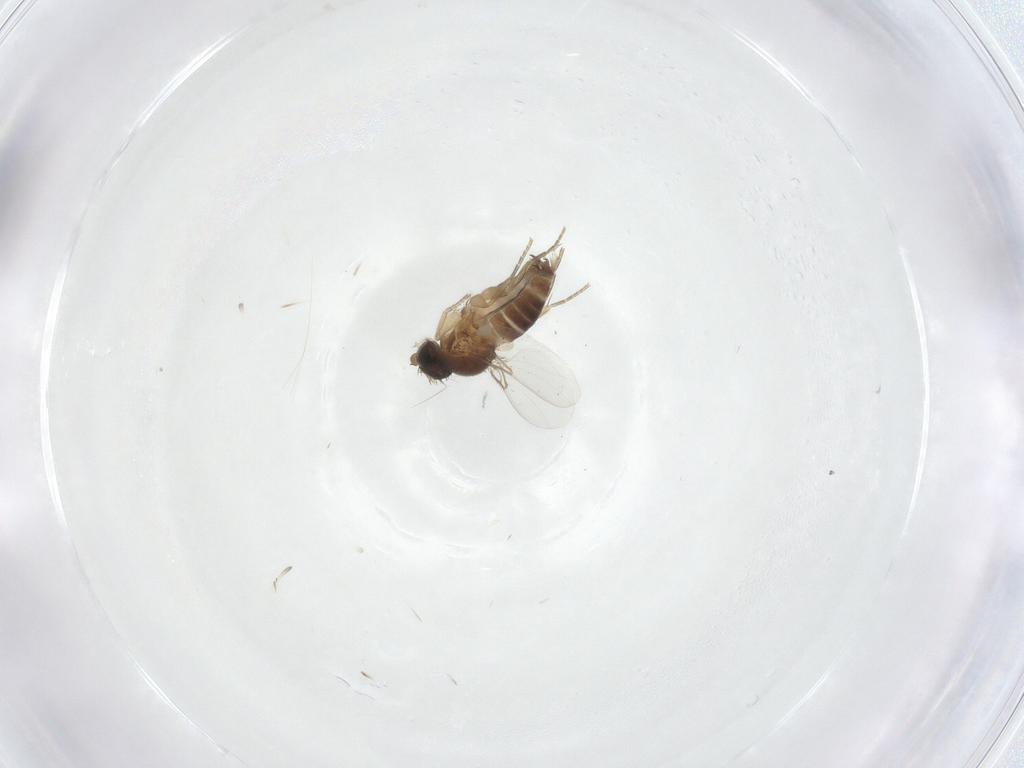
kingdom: Animalia
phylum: Arthropoda
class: Insecta
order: Diptera
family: Phoridae
